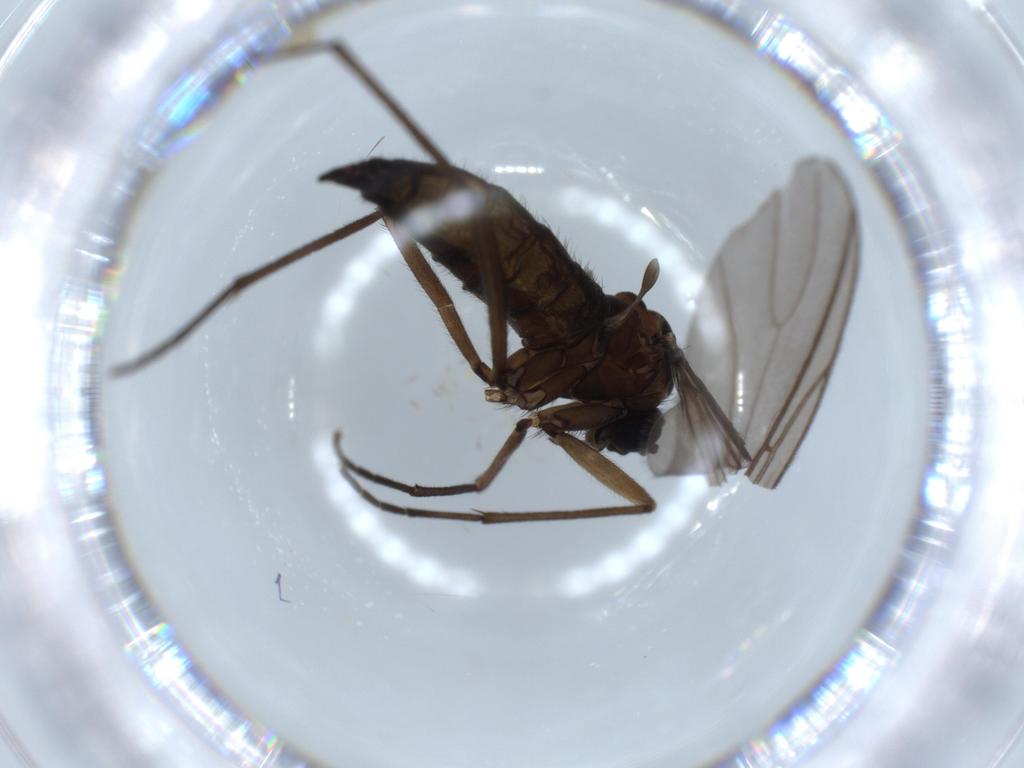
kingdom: Animalia
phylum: Arthropoda
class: Insecta
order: Diptera
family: Sciaridae
